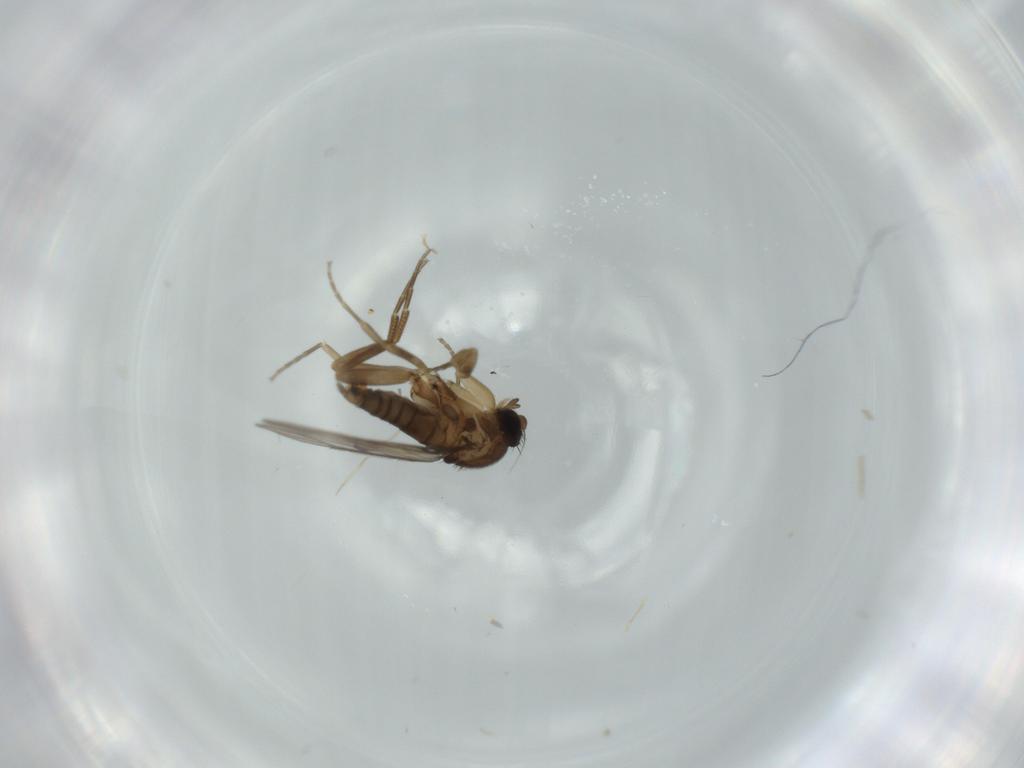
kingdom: Animalia
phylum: Arthropoda
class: Insecta
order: Diptera
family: Phoridae
